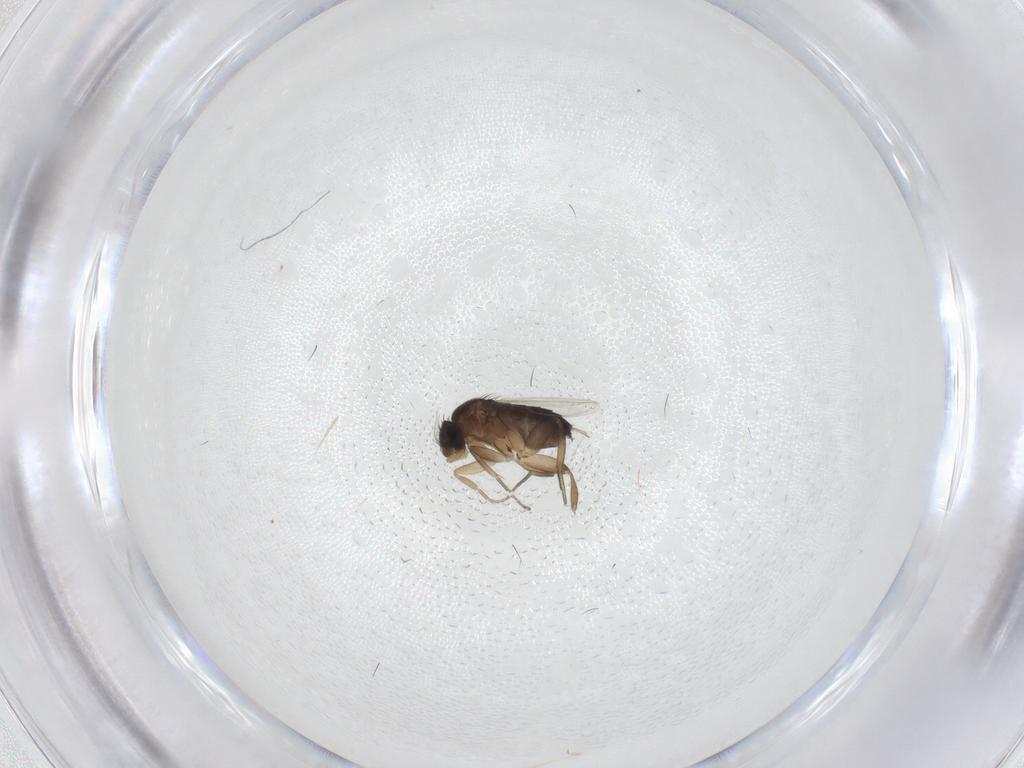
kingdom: Animalia
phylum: Arthropoda
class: Insecta
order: Diptera
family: Phoridae
